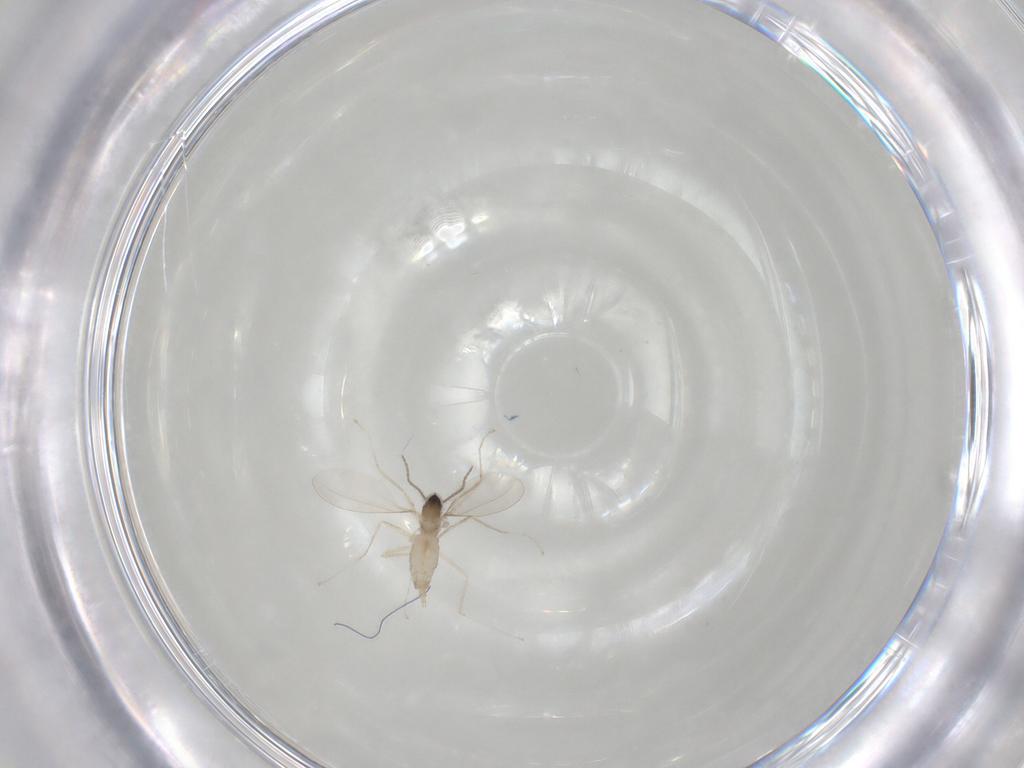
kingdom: Animalia
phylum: Arthropoda
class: Insecta
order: Diptera
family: Cecidomyiidae
